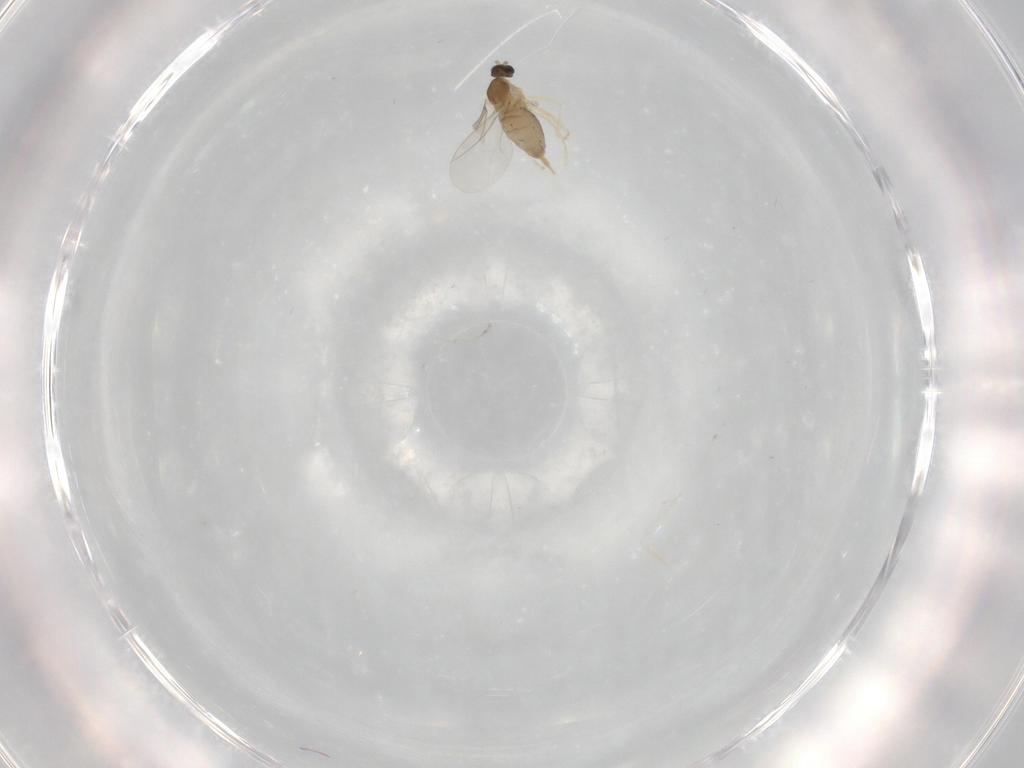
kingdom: Animalia
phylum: Arthropoda
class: Insecta
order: Diptera
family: Cecidomyiidae
